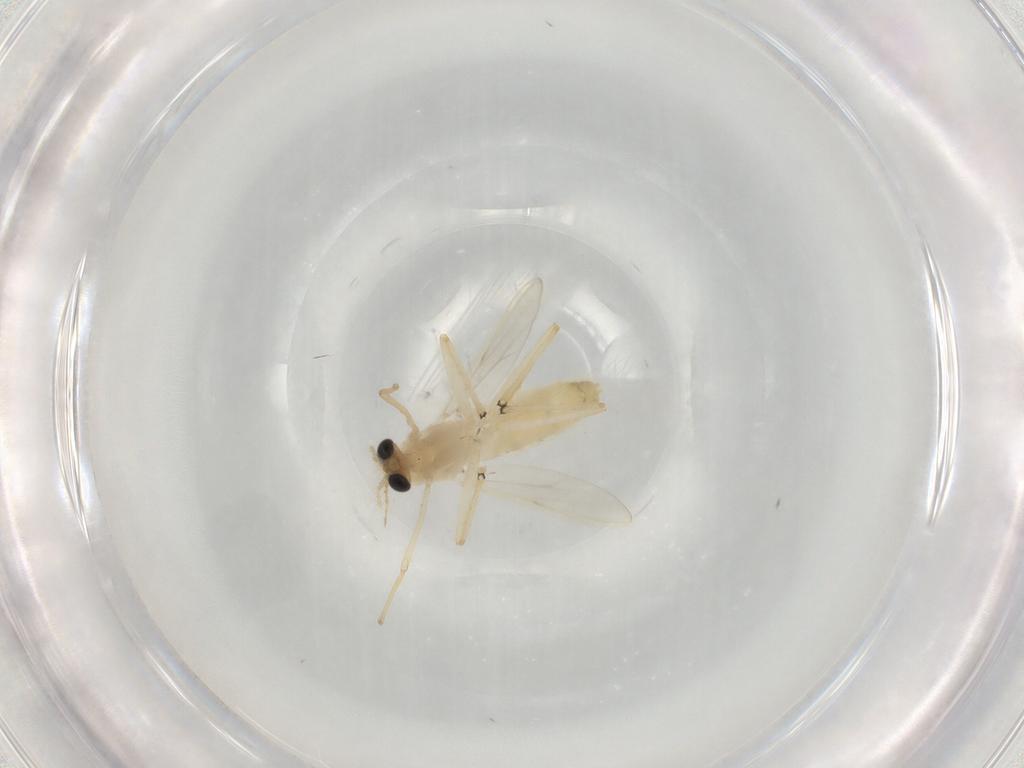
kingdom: Animalia
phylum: Arthropoda
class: Insecta
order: Diptera
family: Chironomidae
